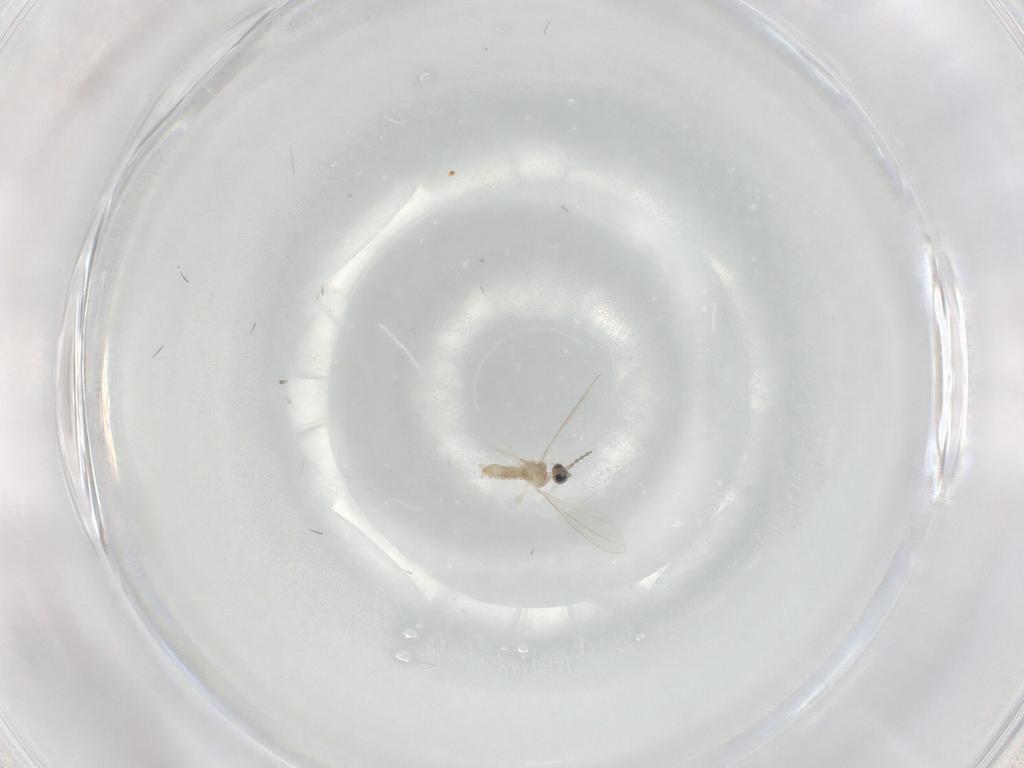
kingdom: Animalia
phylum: Arthropoda
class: Insecta
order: Diptera
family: Cecidomyiidae
